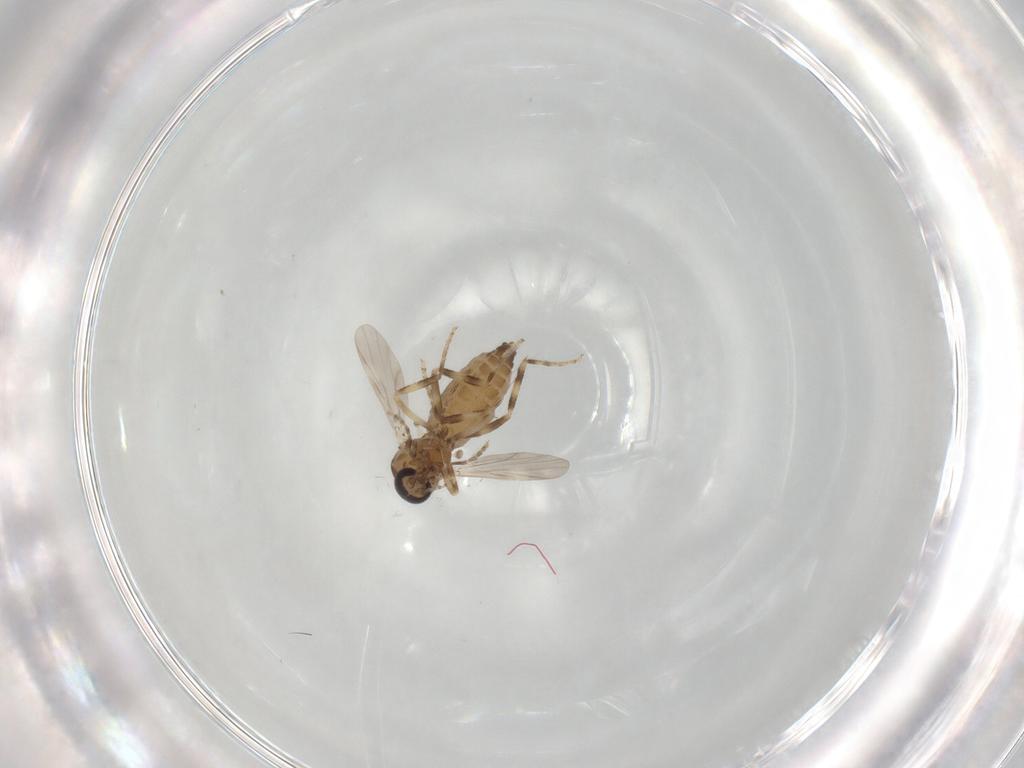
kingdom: Animalia
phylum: Arthropoda
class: Insecta
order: Diptera
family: Ceratopogonidae
